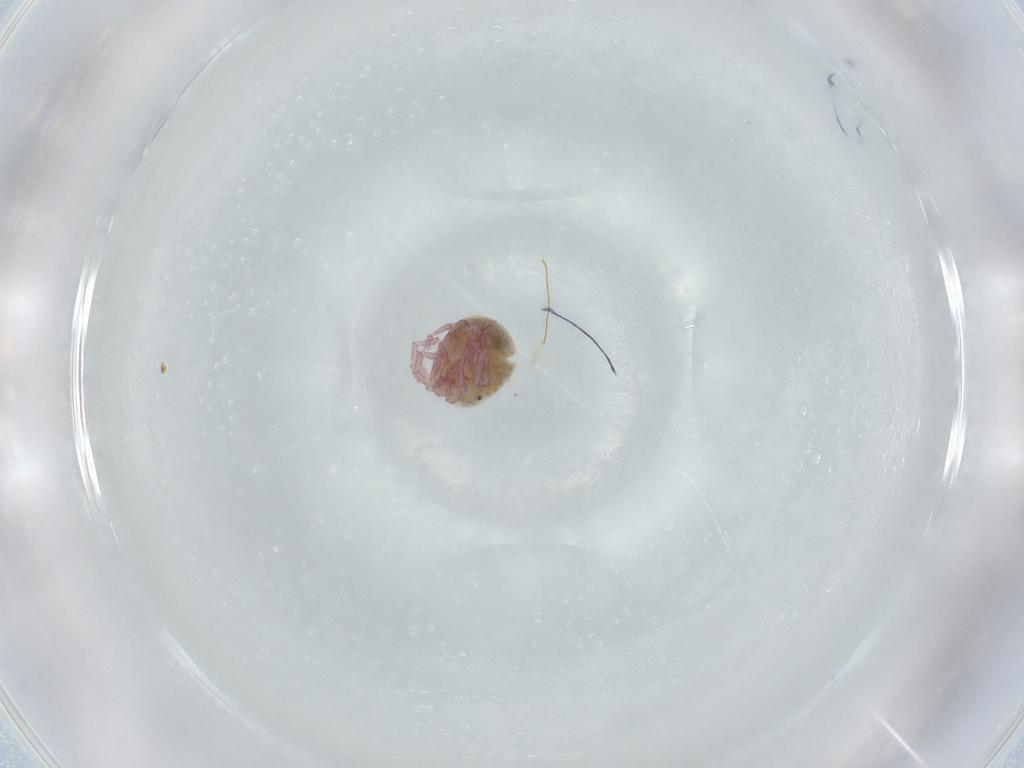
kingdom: Animalia
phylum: Arthropoda
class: Arachnida
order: Trombidiformes
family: Pionidae
